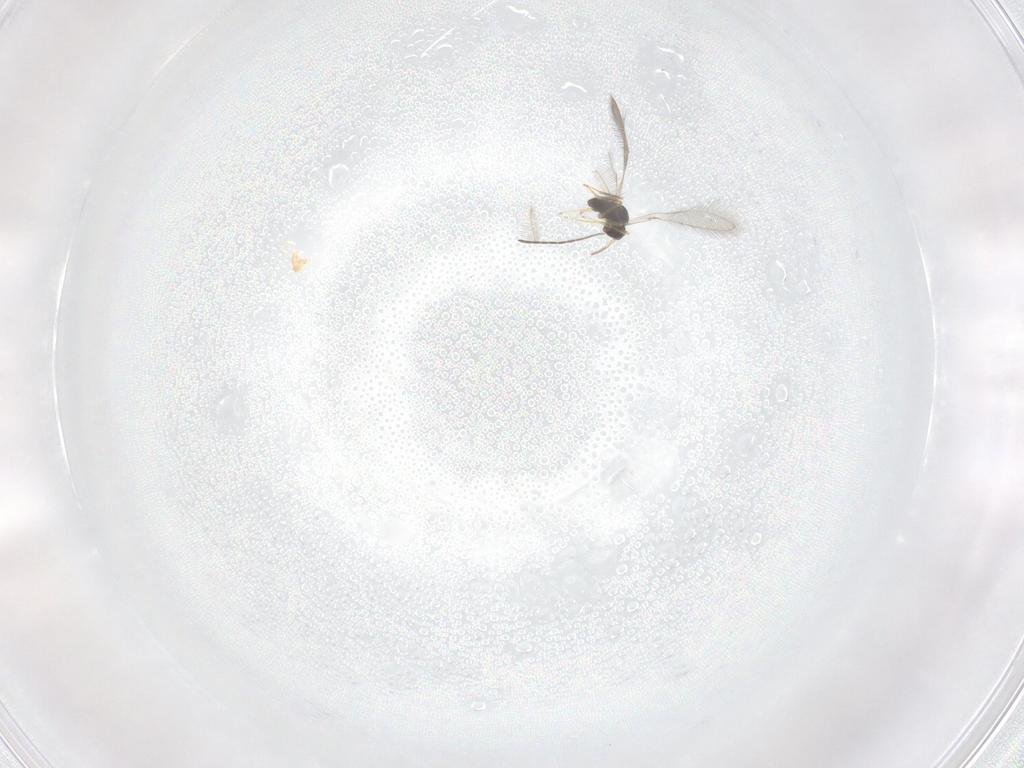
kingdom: Animalia
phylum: Arthropoda
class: Insecta
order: Hymenoptera
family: Mymaridae
